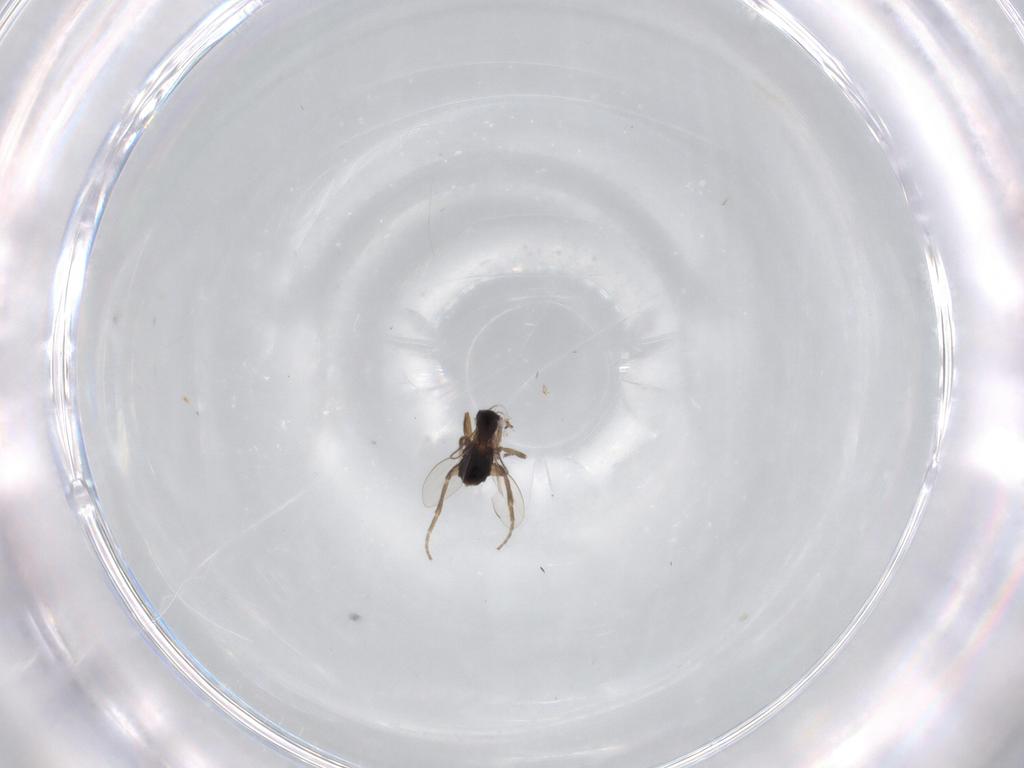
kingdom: Animalia
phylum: Arthropoda
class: Insecta
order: Diptera
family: Phoridae
